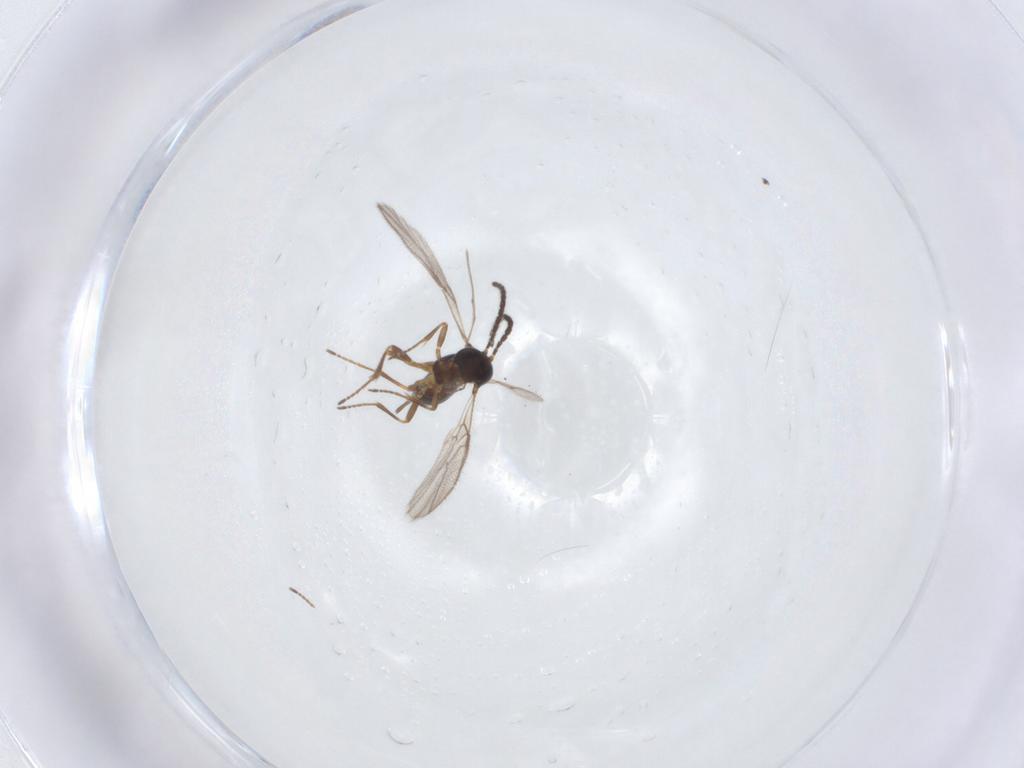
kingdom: Animalia
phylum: Arthropoda
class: Insecta
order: Hymenoptera
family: Braconidae
